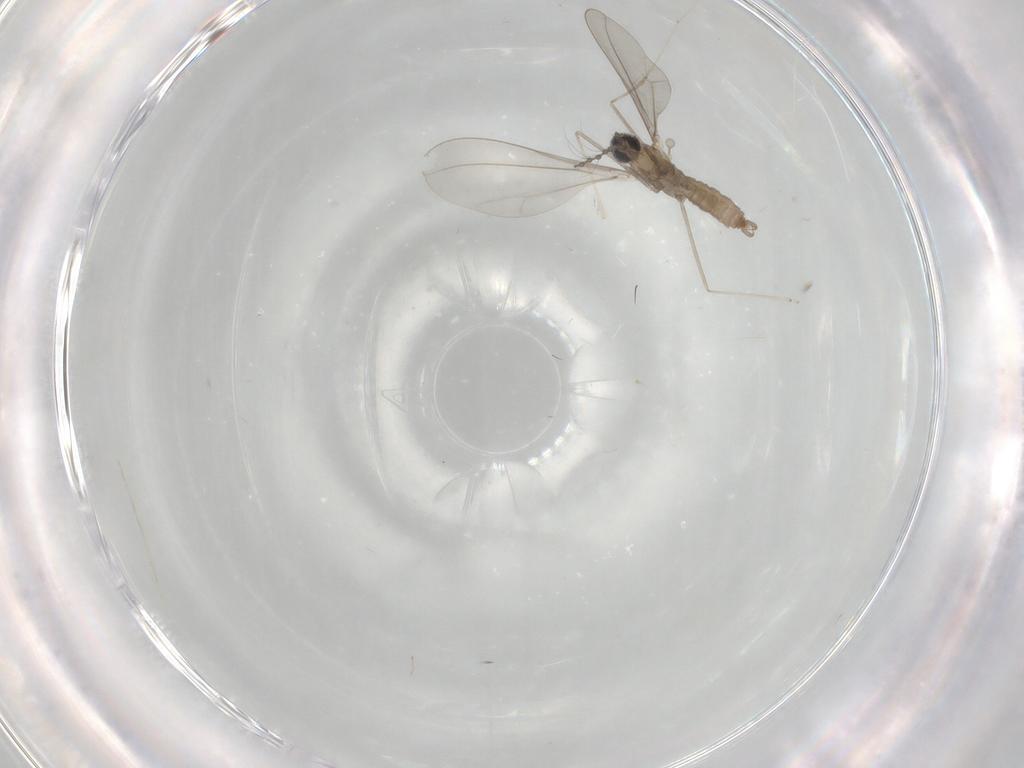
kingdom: Animalia
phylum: Arthropoda
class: Insecta
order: Diptera
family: Cecidomyiidae
